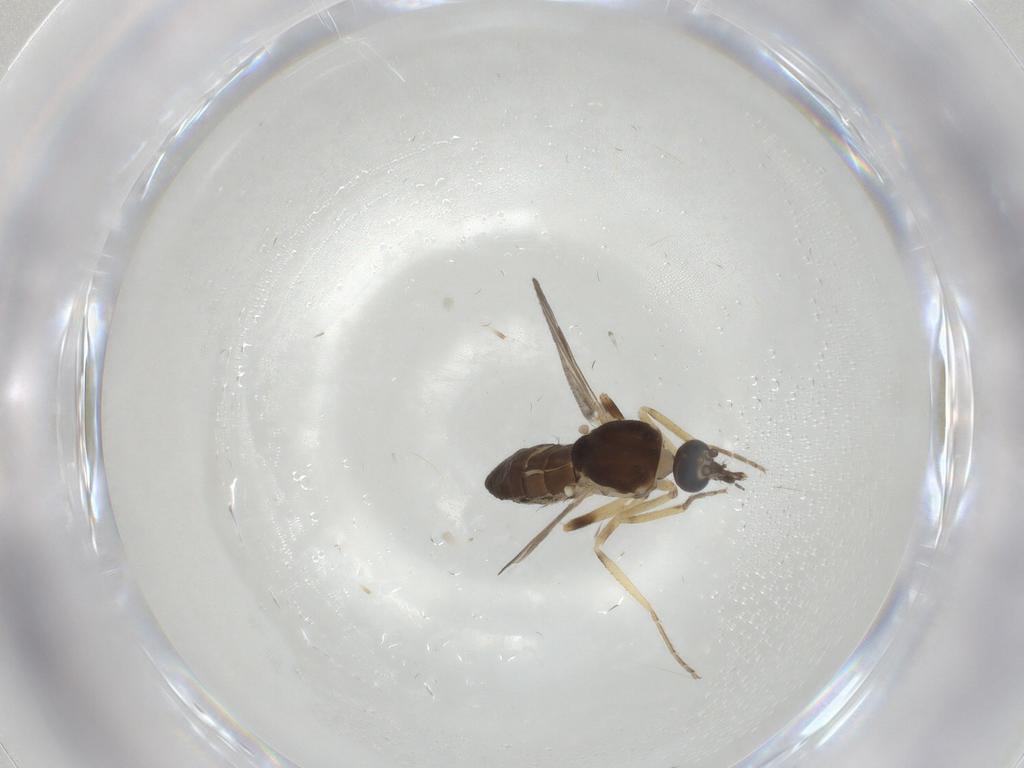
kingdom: Animalia
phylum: Arthropoda
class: Insecta
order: Diptera
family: Ceratopogonidae
